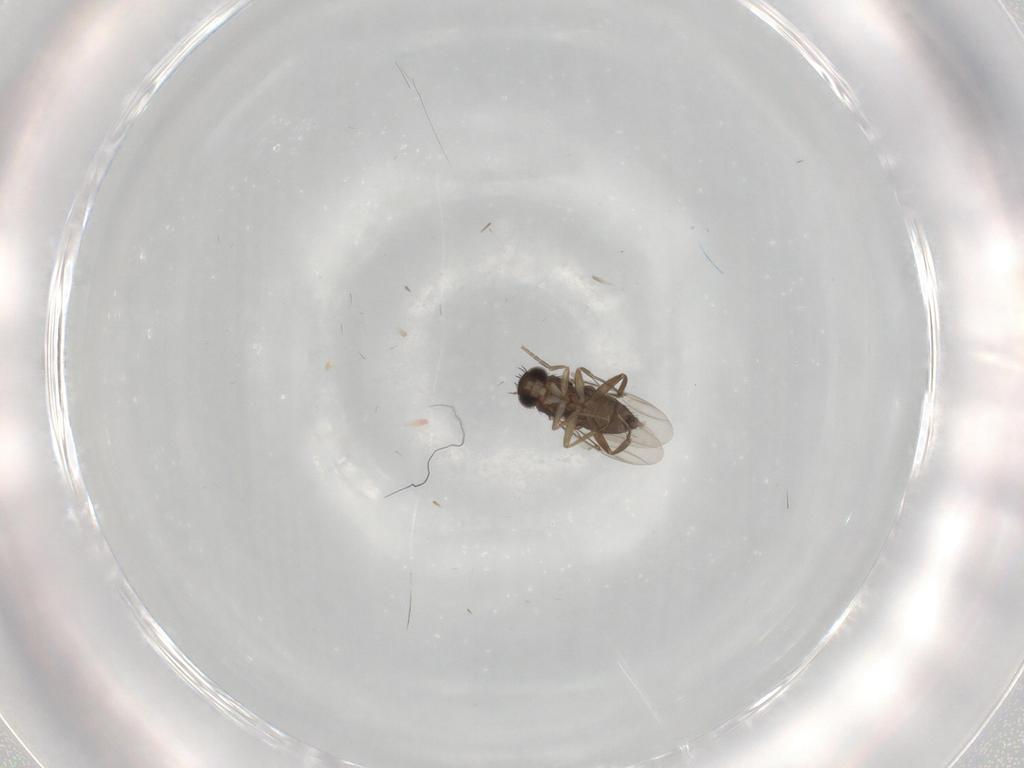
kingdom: Animalia
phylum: Arthropoda
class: Insecta
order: Diptera
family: Phoridae
